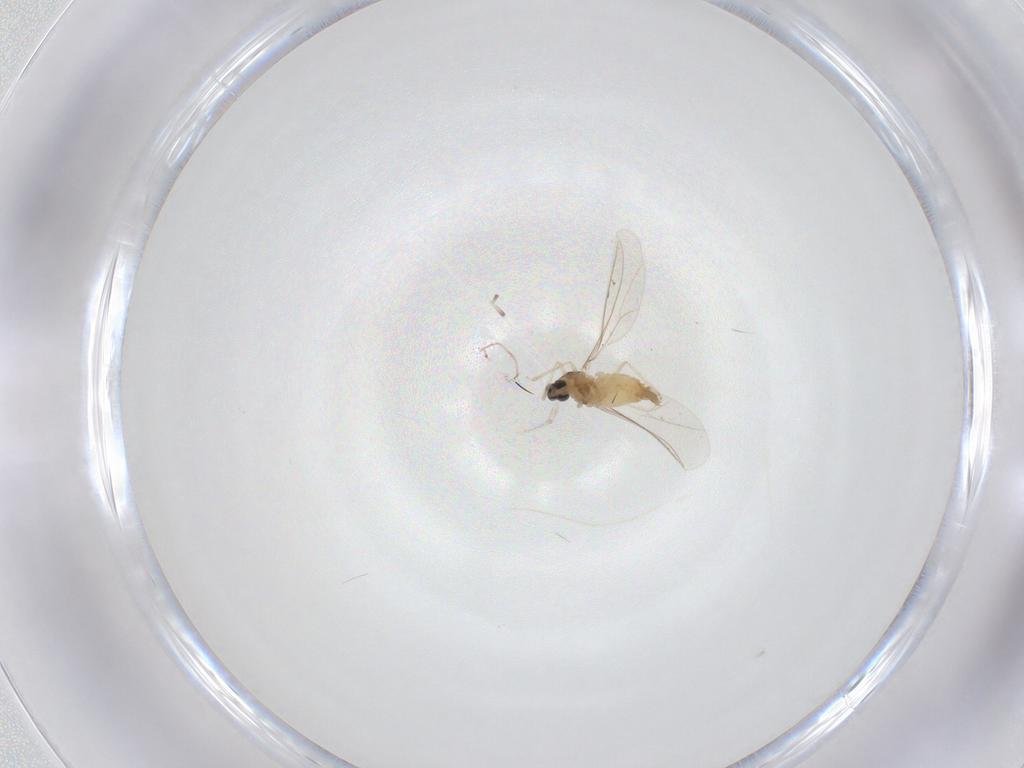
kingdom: Animalia
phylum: Arthropoda
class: Insecta
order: Diptera
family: Cecidomyiidae
